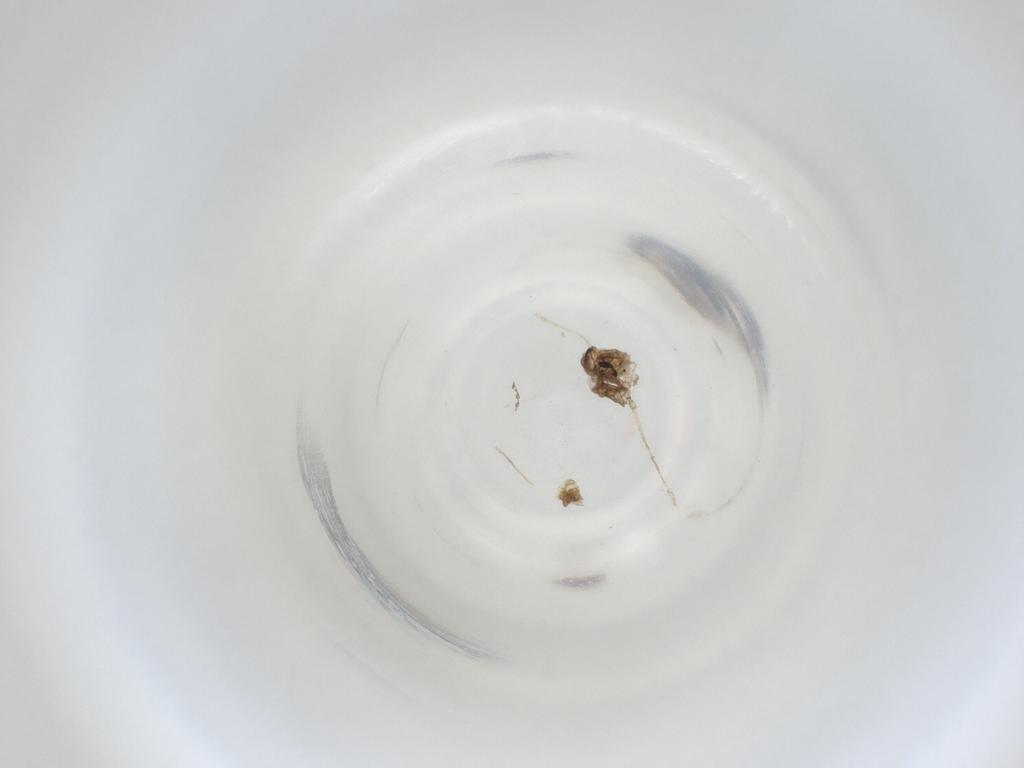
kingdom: Animalia
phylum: Arthropoda
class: Insecta
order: Diptera
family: Cecidomyiidae
